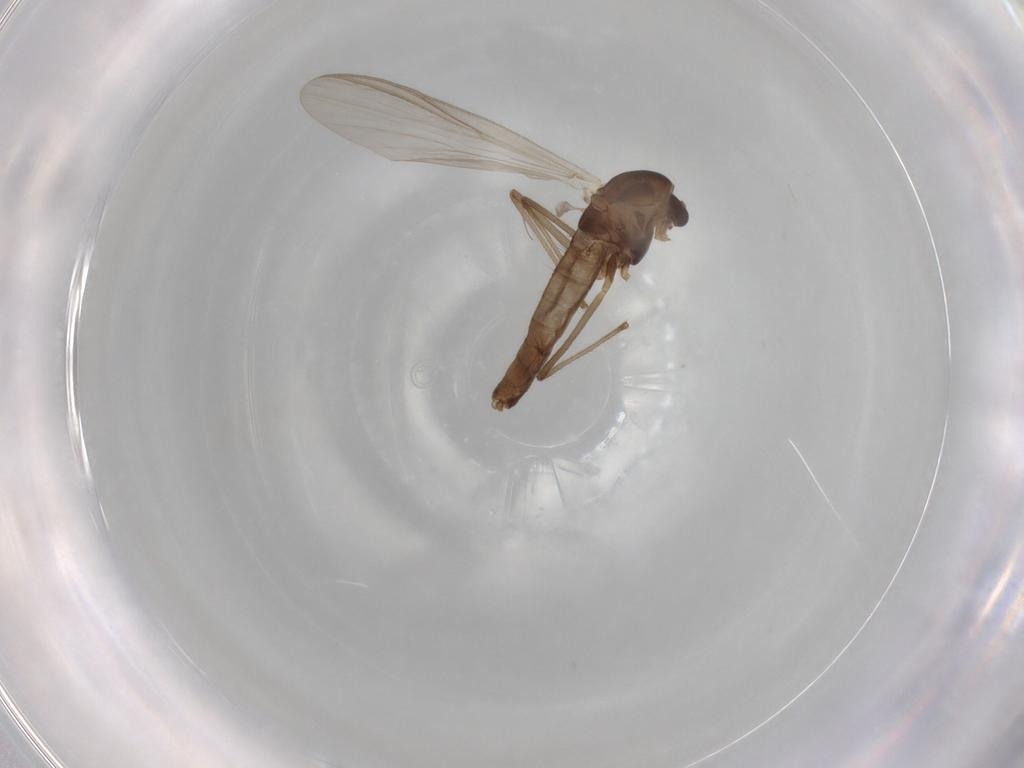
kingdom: Animalia
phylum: Arthropoda
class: Insecta
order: Diptera
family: Chironomidae
